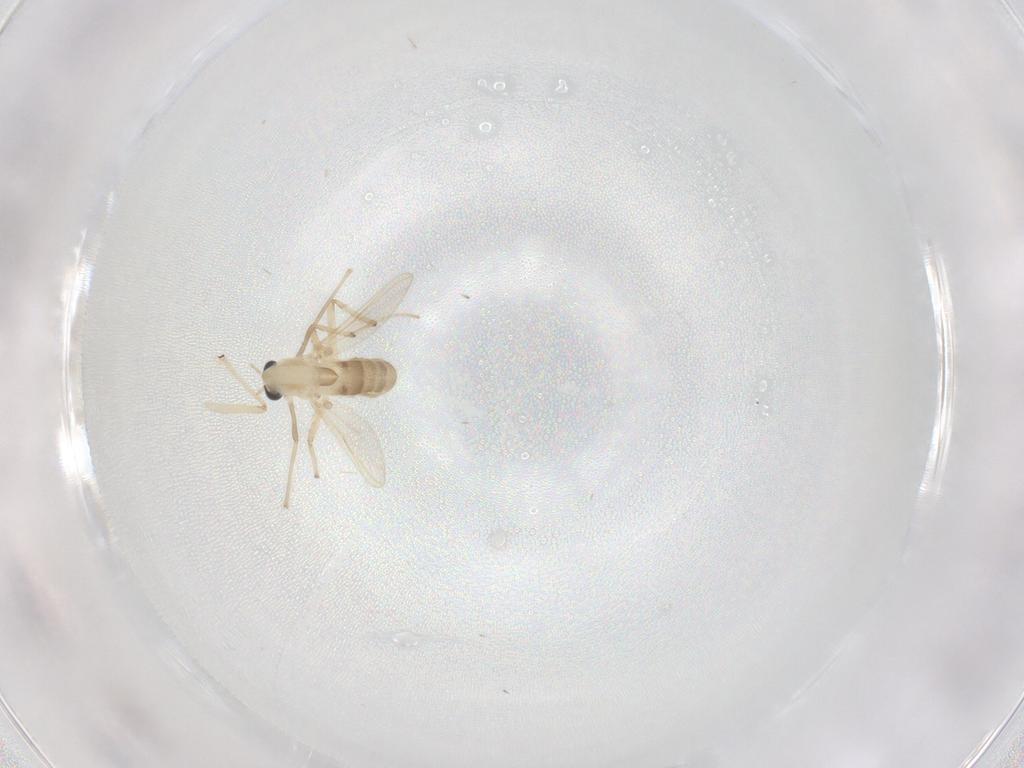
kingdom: Animalia
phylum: Arthropoda
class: Insecta
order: Diptera
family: Chironomidae
